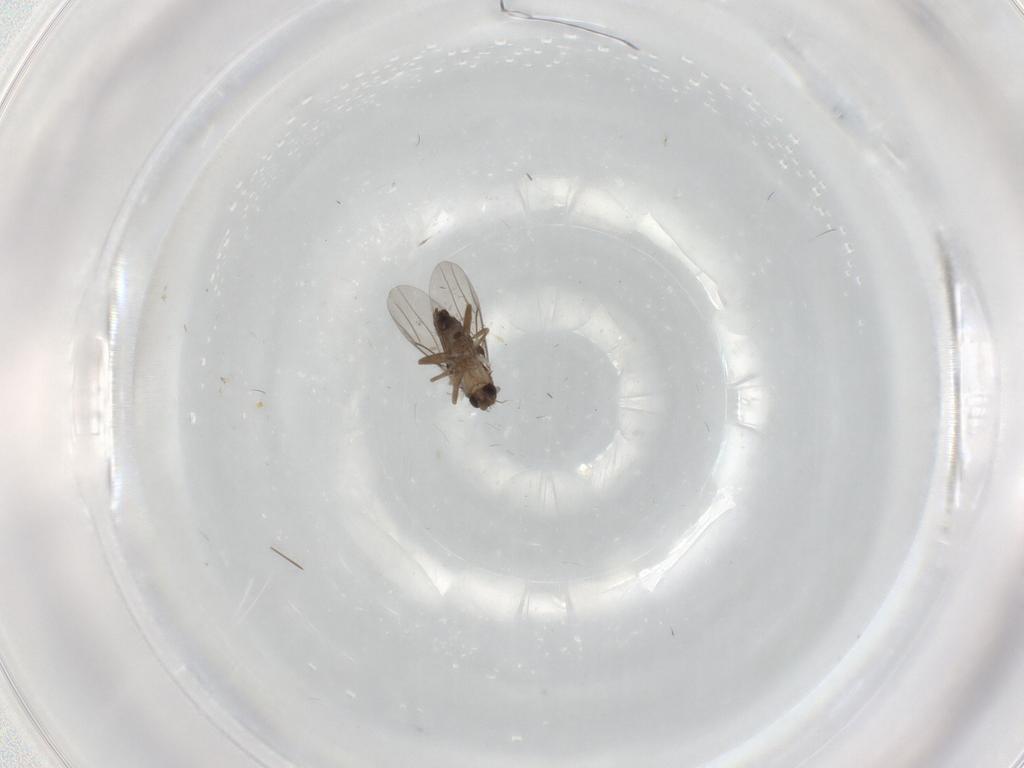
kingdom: Animalia
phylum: Arthropoda
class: Insecta
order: Diptera
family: Phoridae
